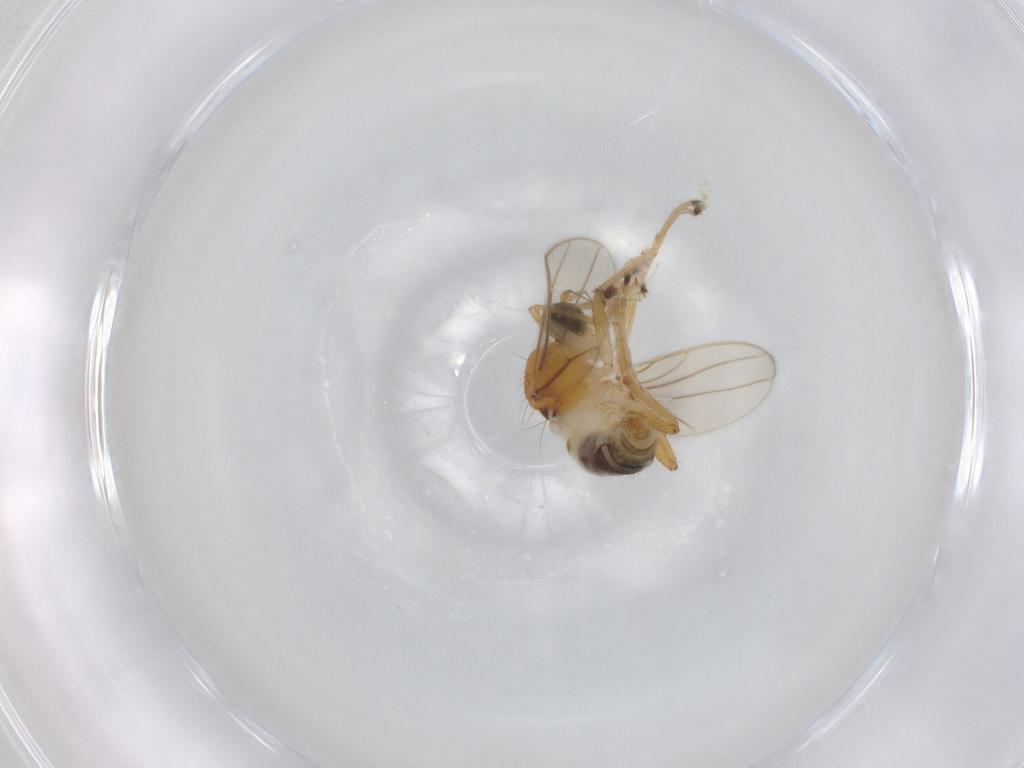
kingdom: Animalia
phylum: Arthropoda
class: Insecta
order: Diptera
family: Hybotidae
